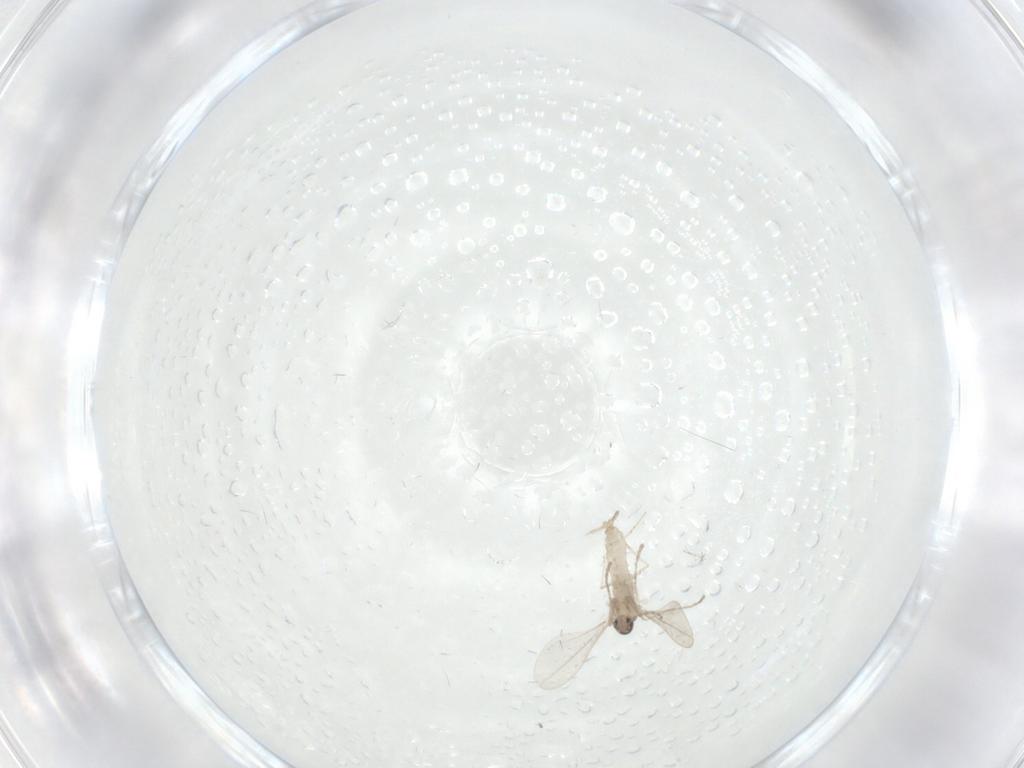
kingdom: Animalia
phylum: Arthropoda
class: Insecta
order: Diptera
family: Cecidomyiidae
